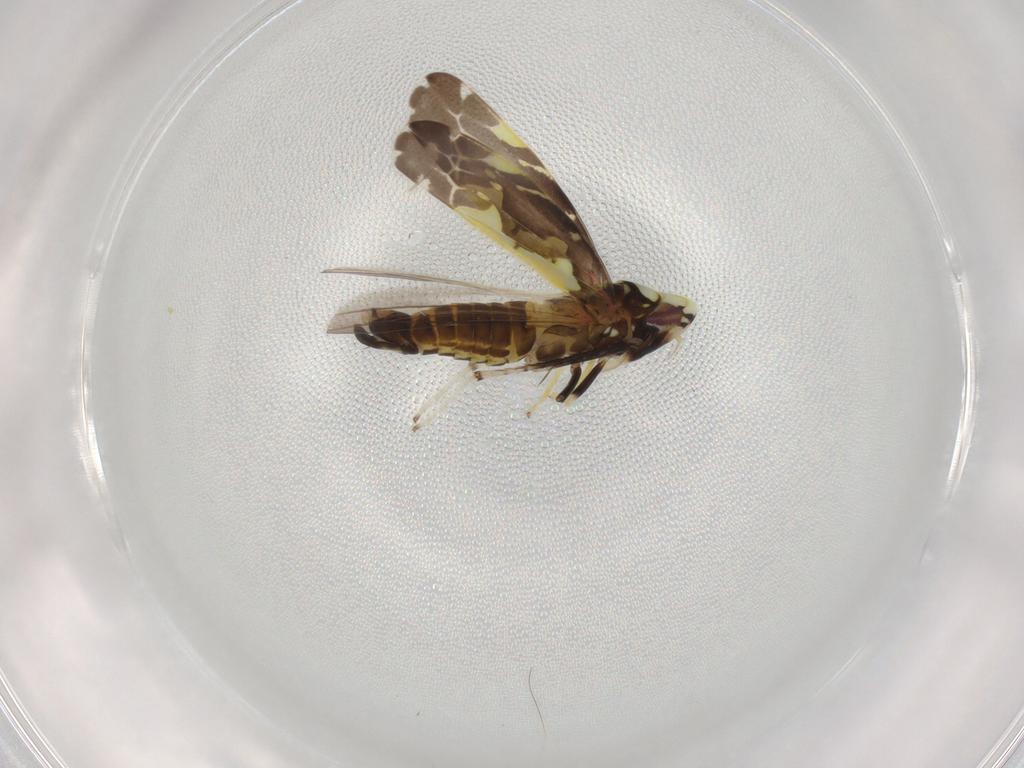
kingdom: Animalia
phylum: Arthropoda
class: Insecta
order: Hemiptera
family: Cicadellidae
